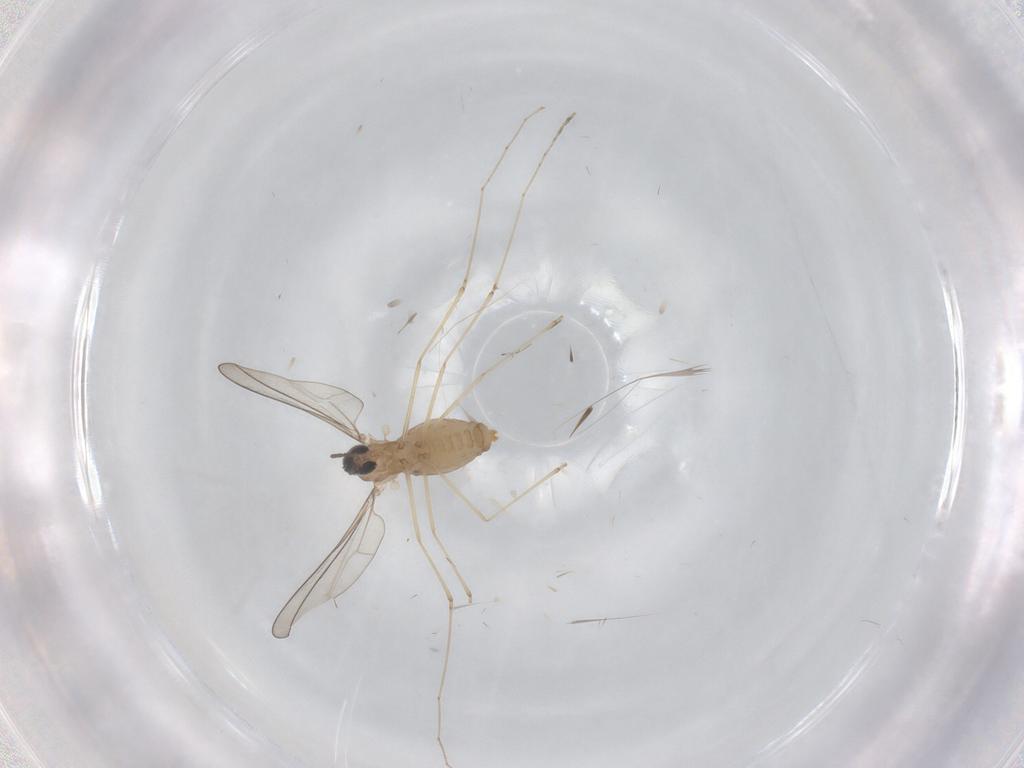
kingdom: Animalia
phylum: Arthropoda
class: Insecta
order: Diptera
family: Cecidomyiidae
